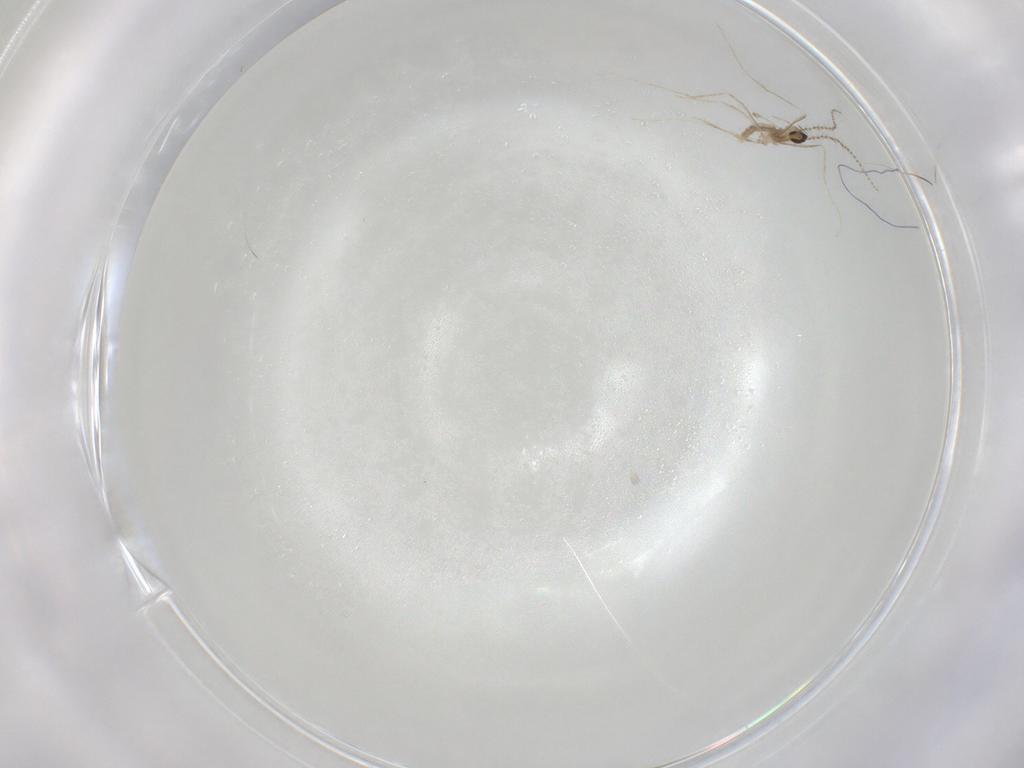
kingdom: Animalia
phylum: Arthropoda
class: Insecta
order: Diptera
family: Cecidomyiidae
